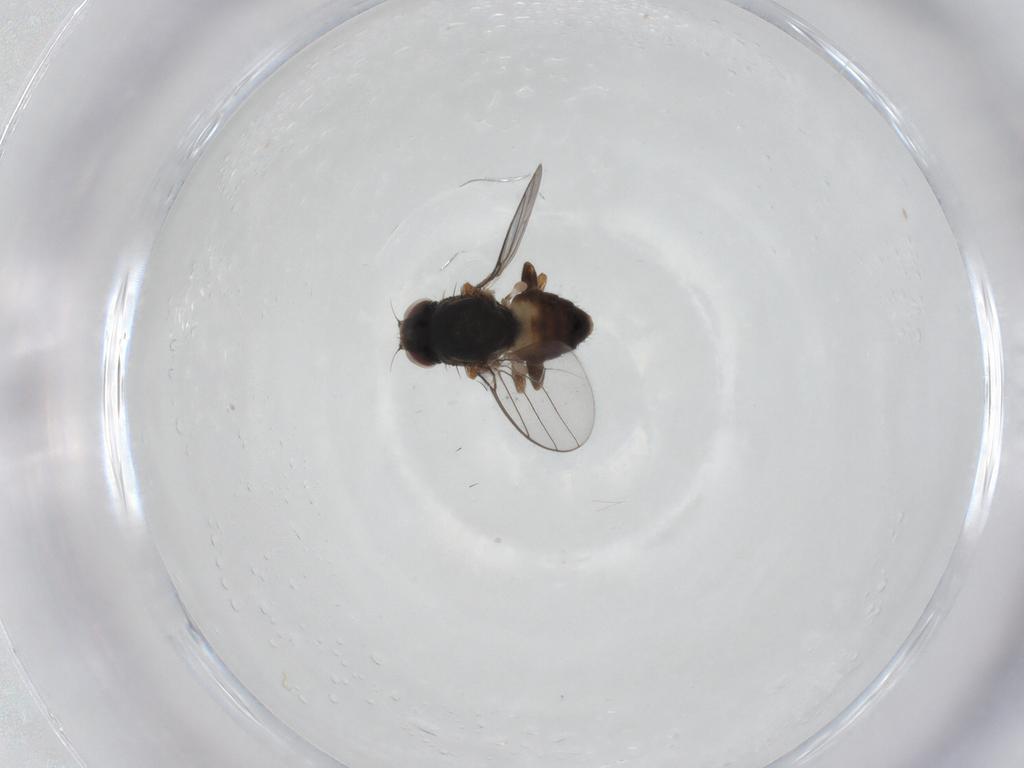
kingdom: Animalia
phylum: Arthropoda
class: Insecta
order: Diptera
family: Chloropidae
